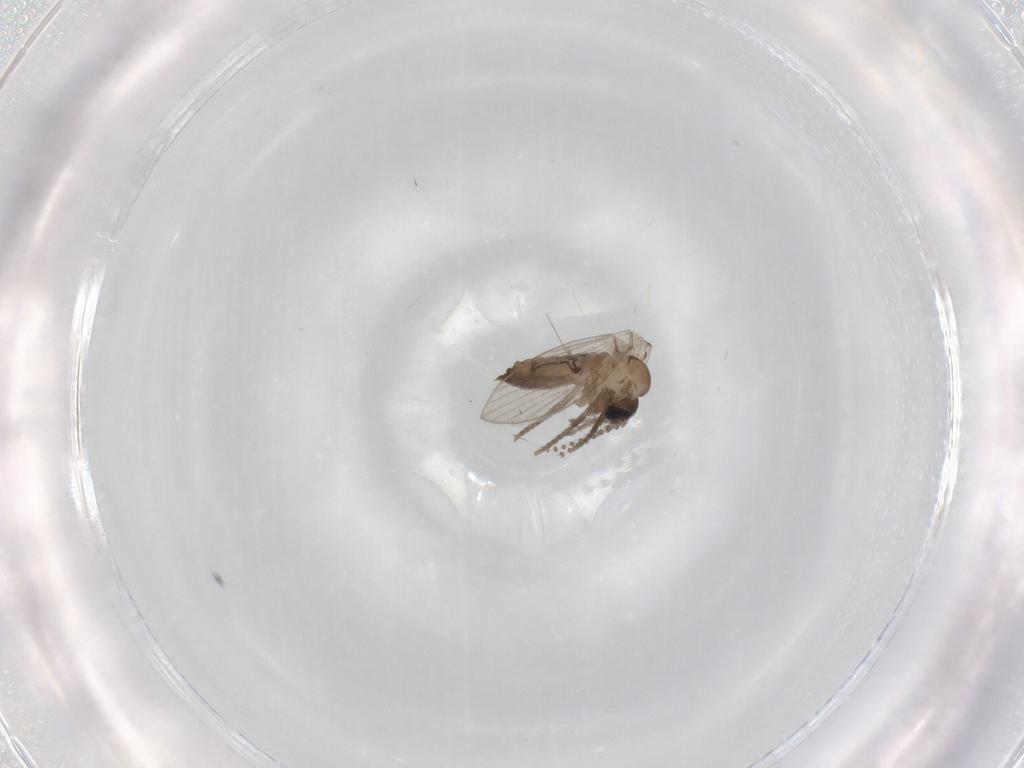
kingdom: Animalia
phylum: Arthropoda
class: Insecta
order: Diptera
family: Psychodidae
